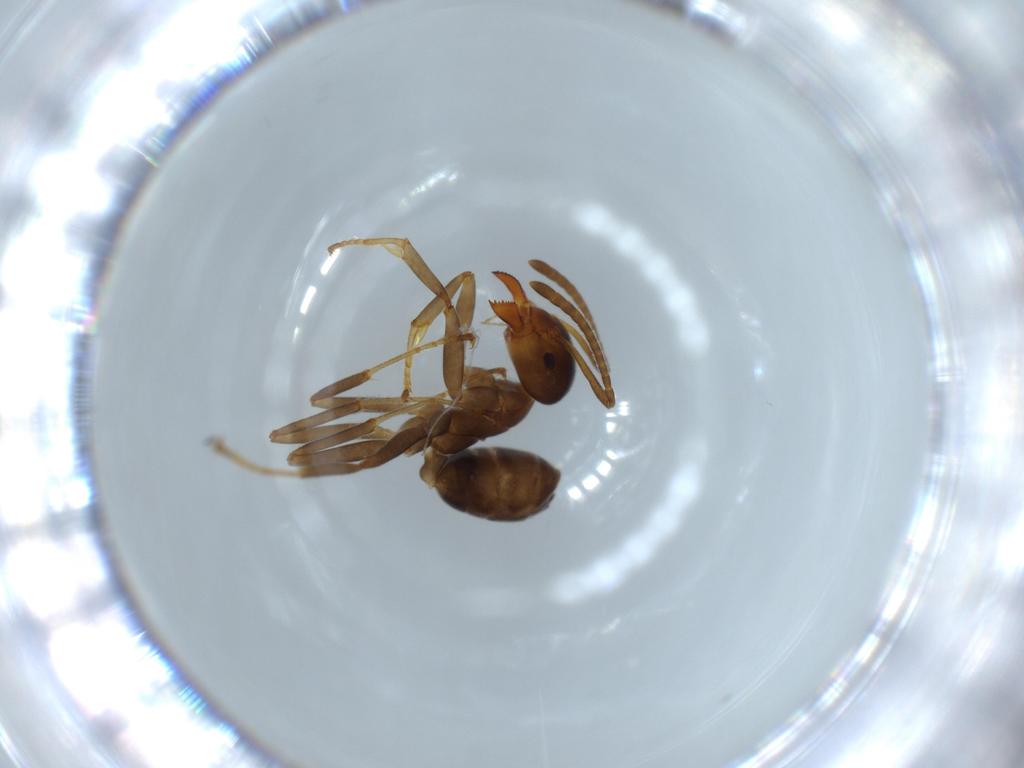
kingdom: Animalia
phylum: Arthropoda
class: Insecta
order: Hymenoptera
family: Formicidae
